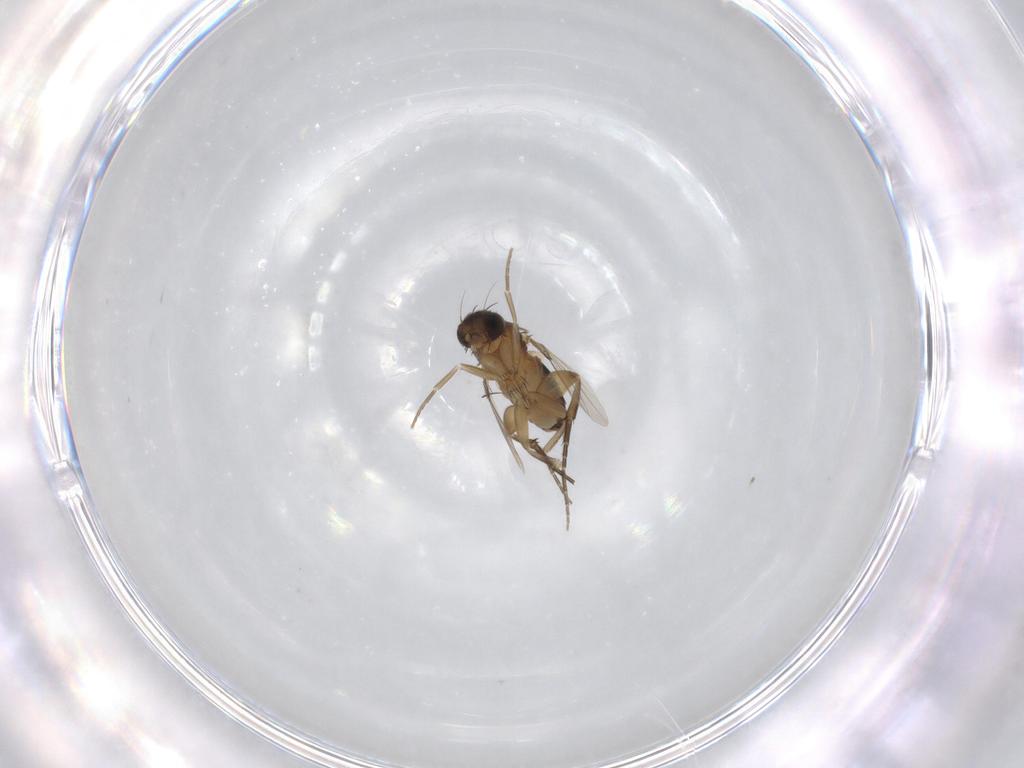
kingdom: Animalia
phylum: Arthropoda
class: Insecta
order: Diptera
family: Phoridae
